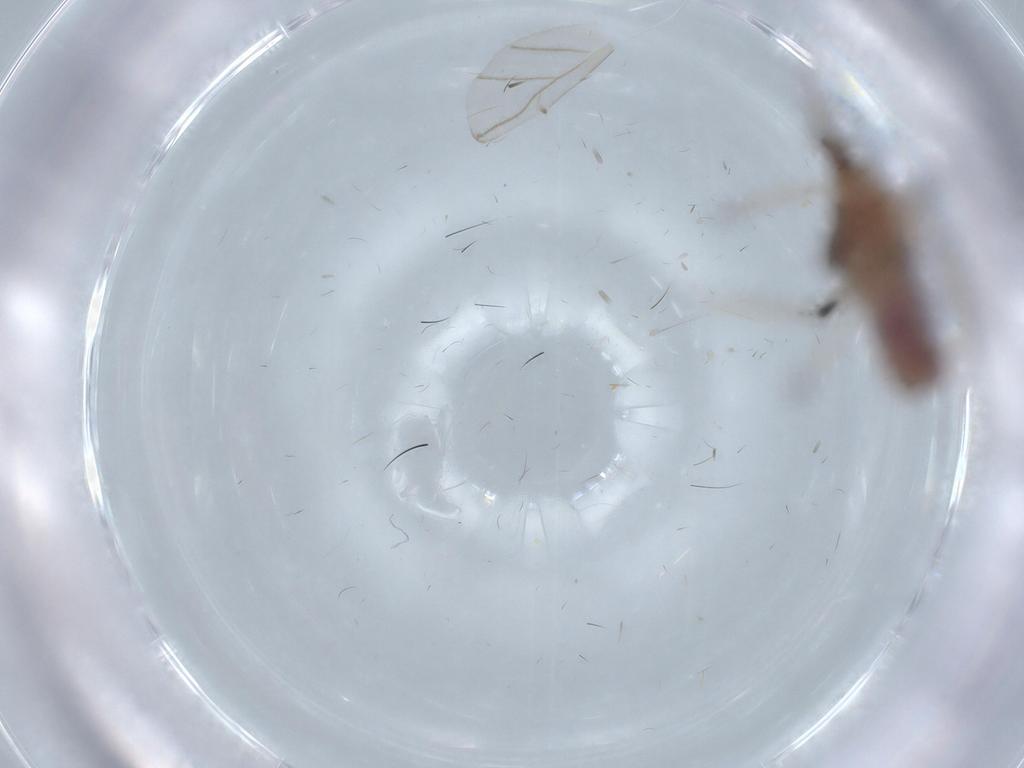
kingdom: Animalia
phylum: Arthropoda
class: Insecta
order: Hemiptera
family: Aphididae
